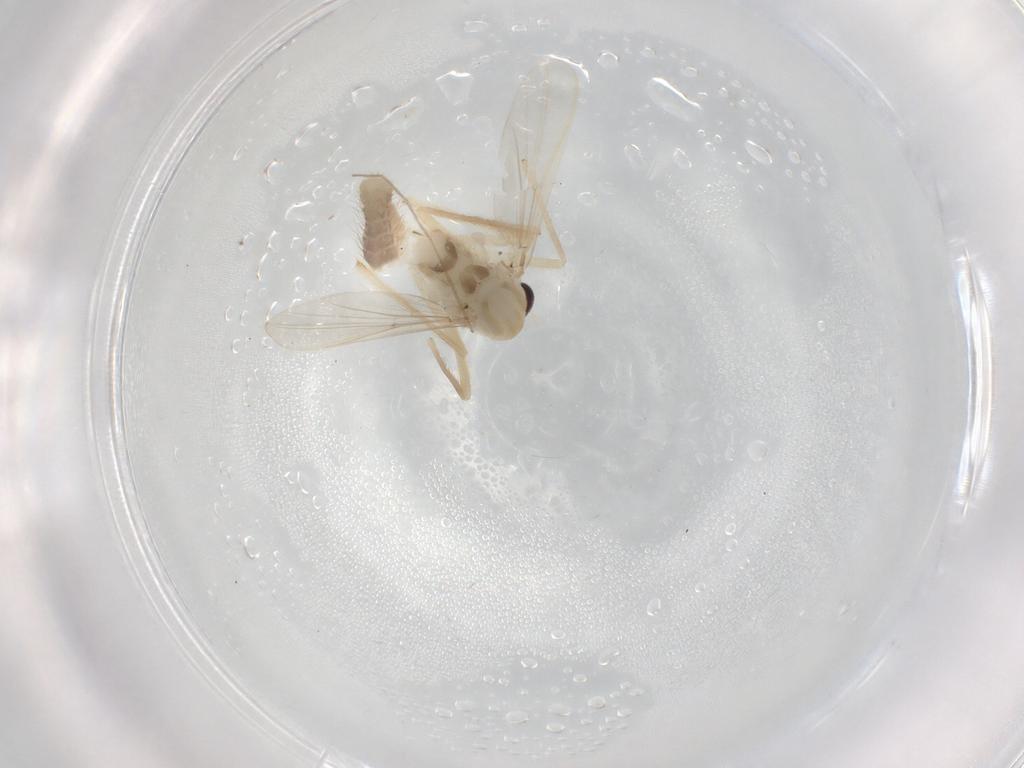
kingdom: Animalia
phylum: Arthropoda
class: Insecta
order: Diptera
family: Chironomidae
